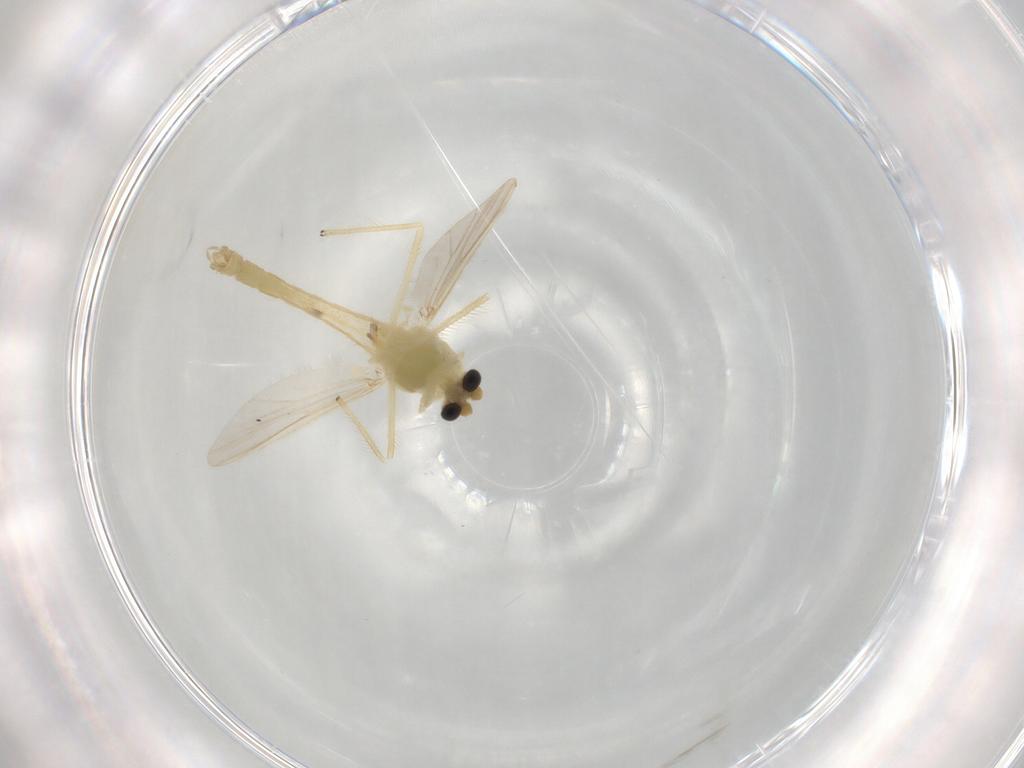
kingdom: Animalia
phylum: Arthropoda
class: Insecta
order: Diptera
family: Chironomidae
